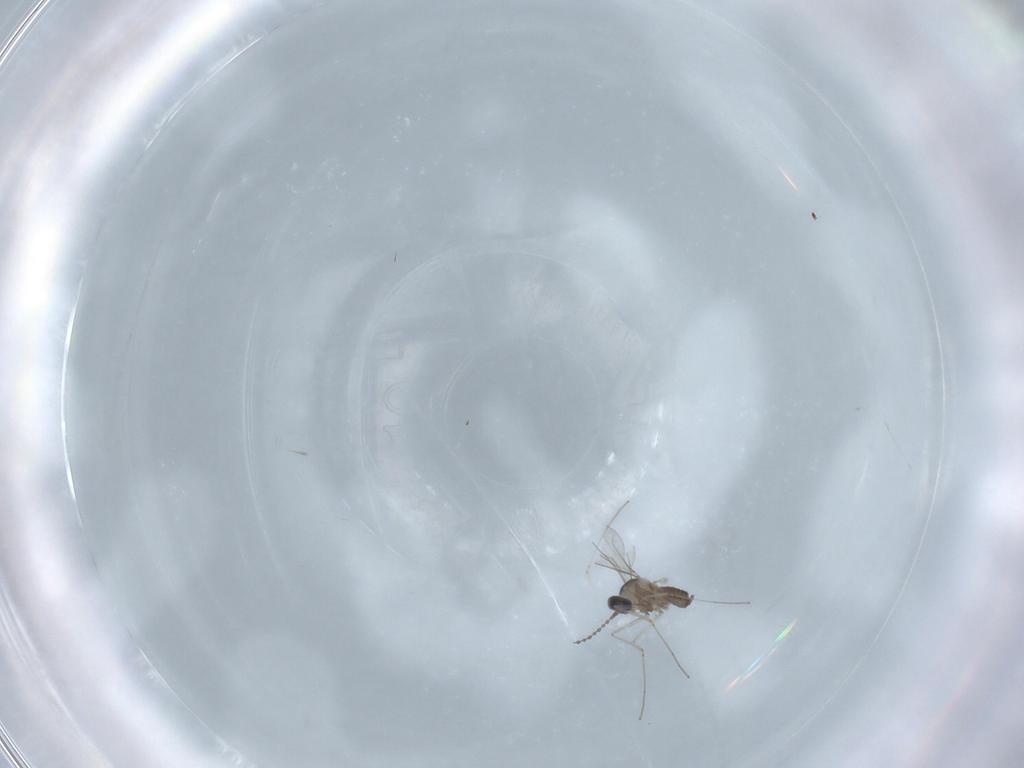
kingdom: Animalia
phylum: Arthropoda
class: Insecta
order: Diptera
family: Cecidomyiidae
